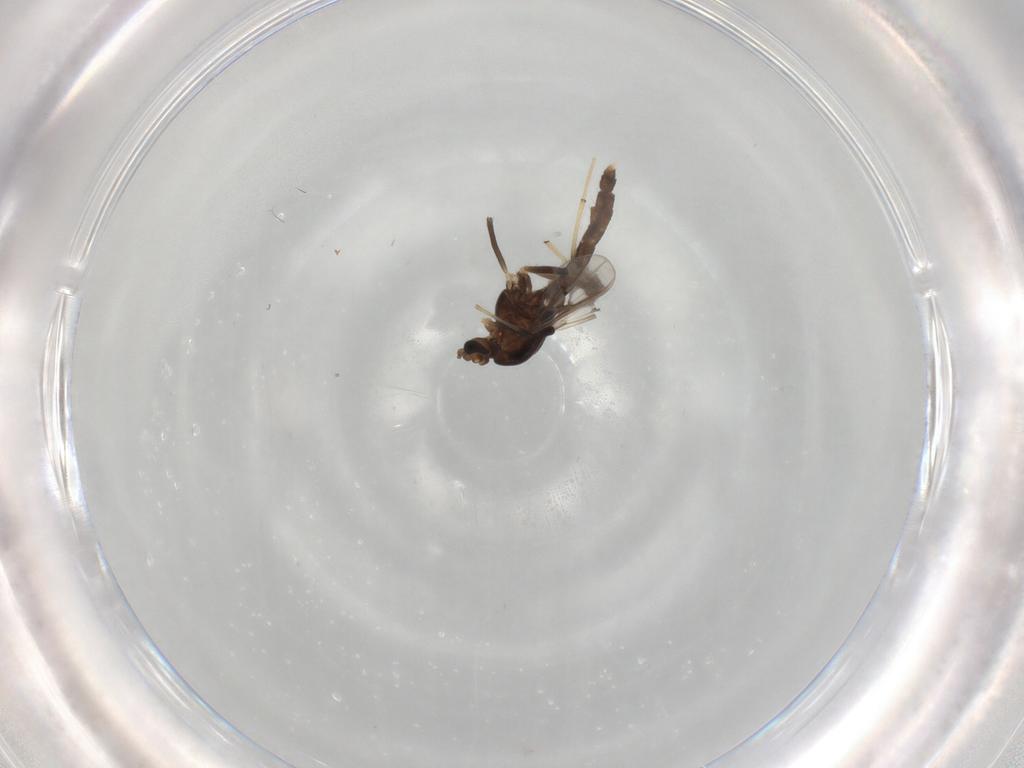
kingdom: Animalia
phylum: Arthropoda
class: Insecta
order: Diptera
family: Chironomidae
